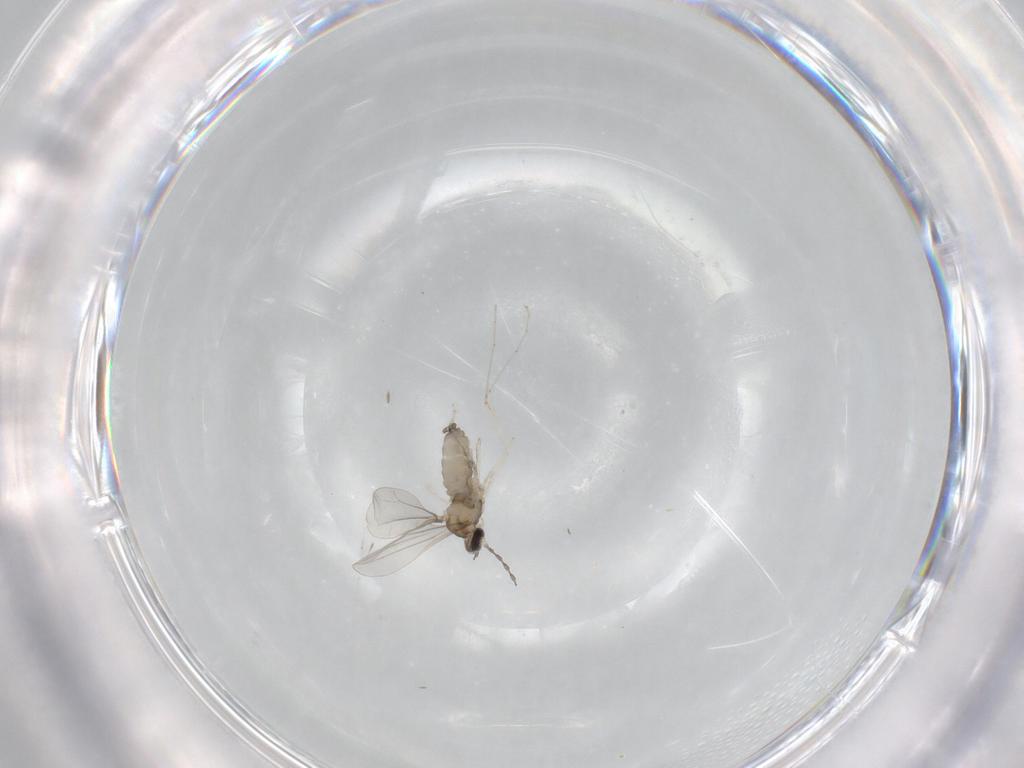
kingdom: Animalia
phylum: Arthropoda
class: Insecta
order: Diptera
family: Cecidomyiidae
